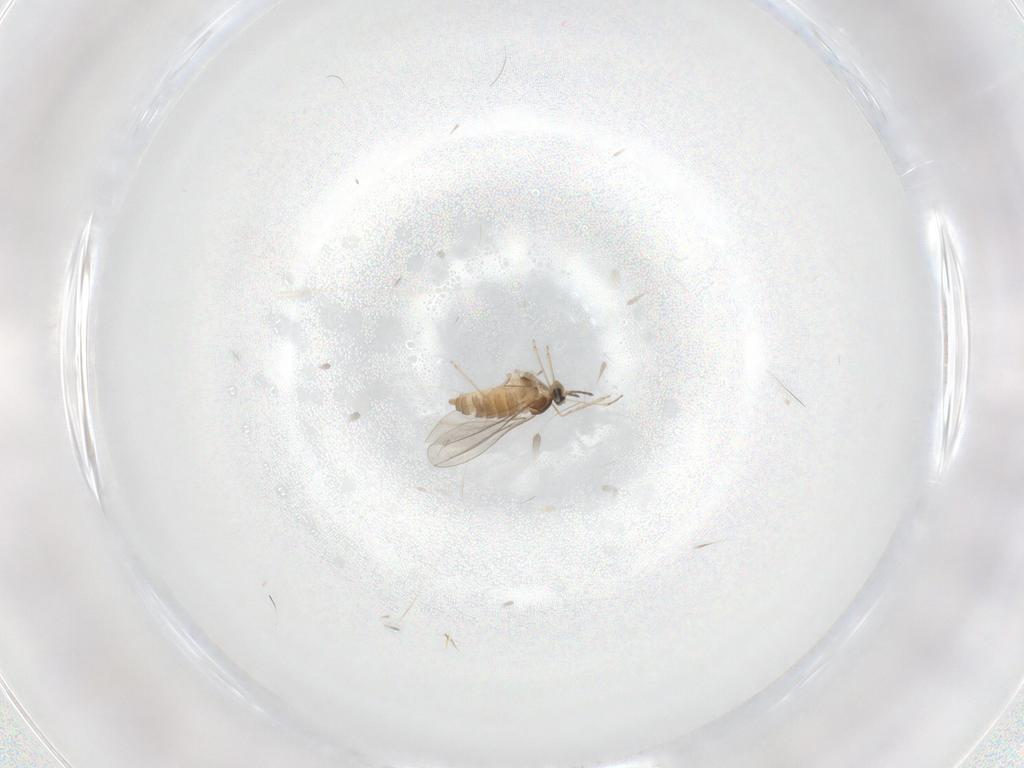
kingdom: Animalia
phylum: Arthropoda
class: Insecta
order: Diptera
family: Cecidomyiidae
